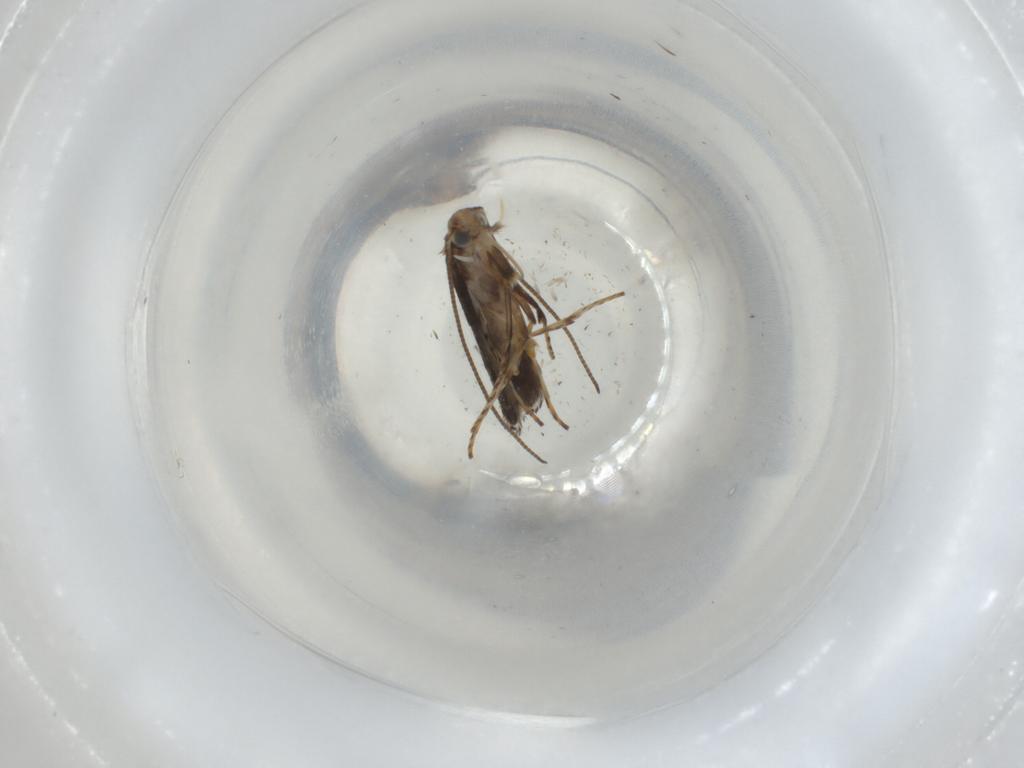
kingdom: Animalia
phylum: Arthropoda
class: Insecta
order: Lepidoptera
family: Gracillariidae
